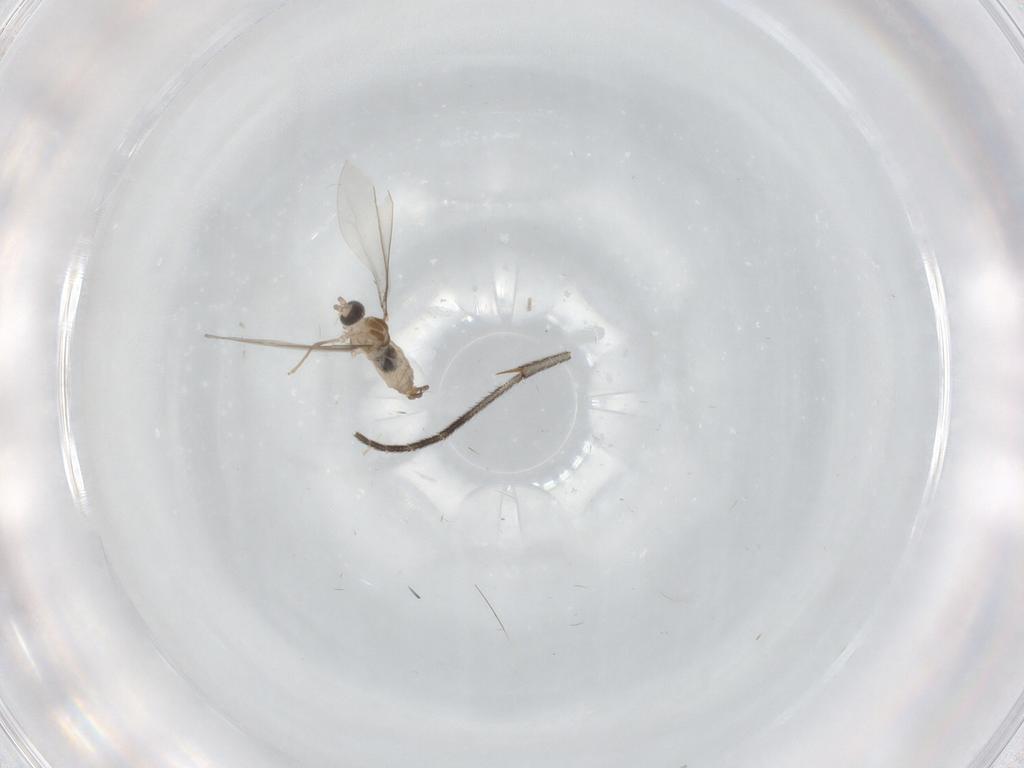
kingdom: Animalia
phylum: Arthropoda
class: Insecta
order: Diptera
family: Cecidomyiidae
